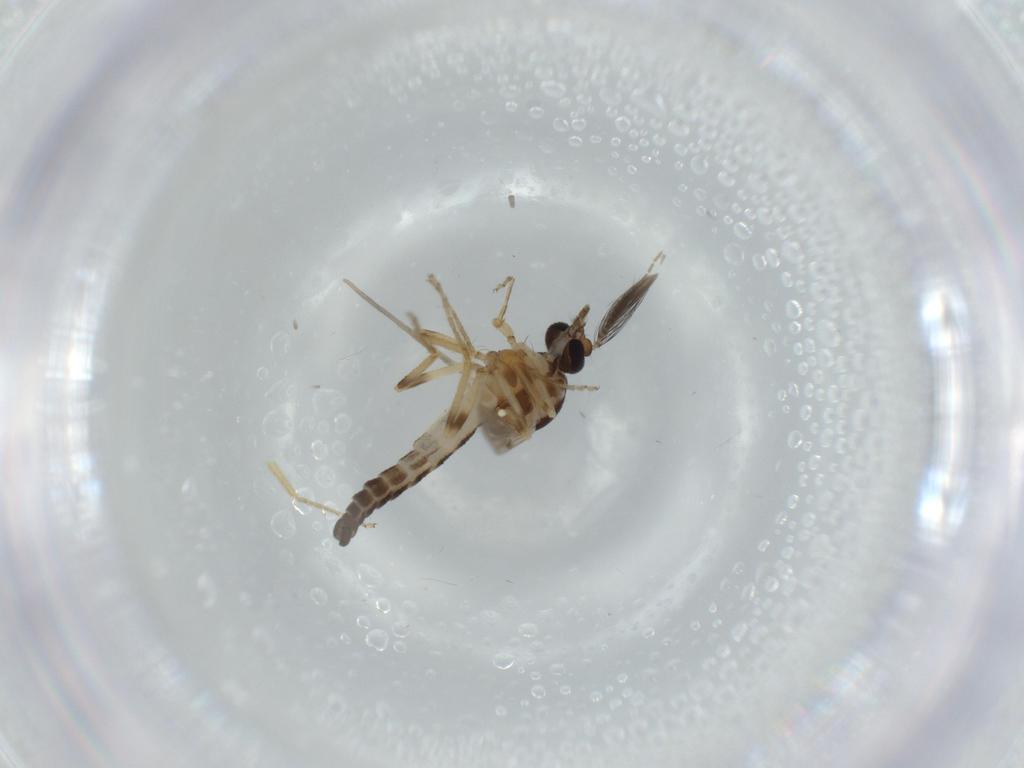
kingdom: Animalia
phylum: Arthropoda
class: Insecta
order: Diptera
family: Ceratopogonidae
